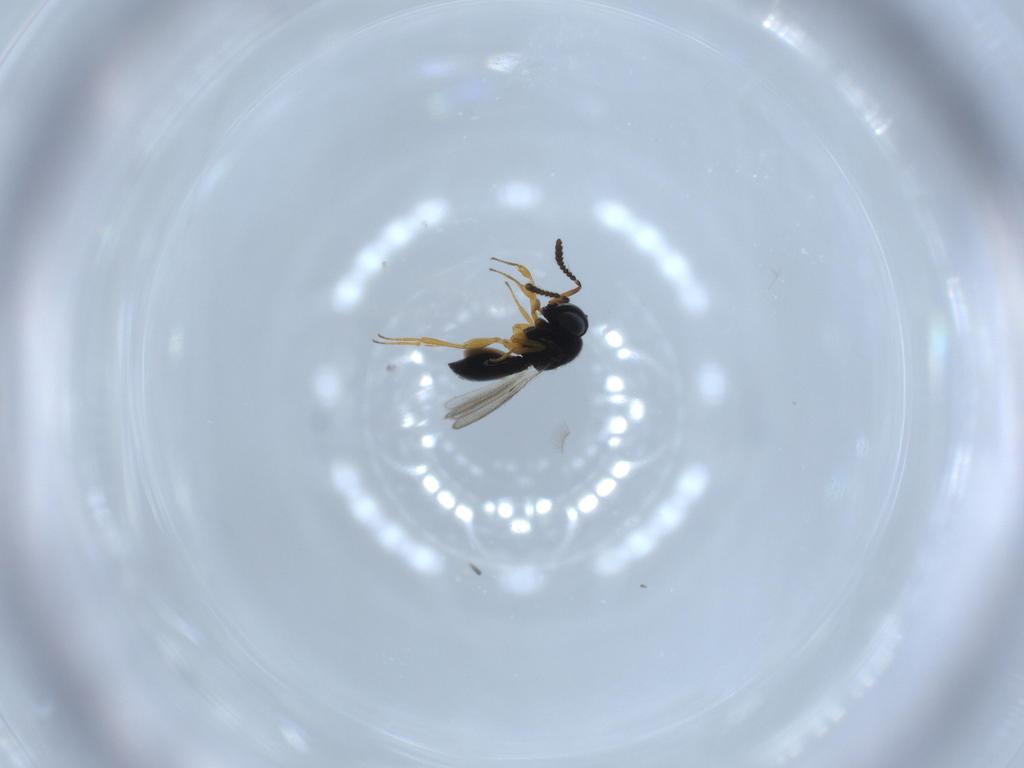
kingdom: Animalia
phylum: Arthropoda
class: Insecta
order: Hymenoptera
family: Scelionidae
